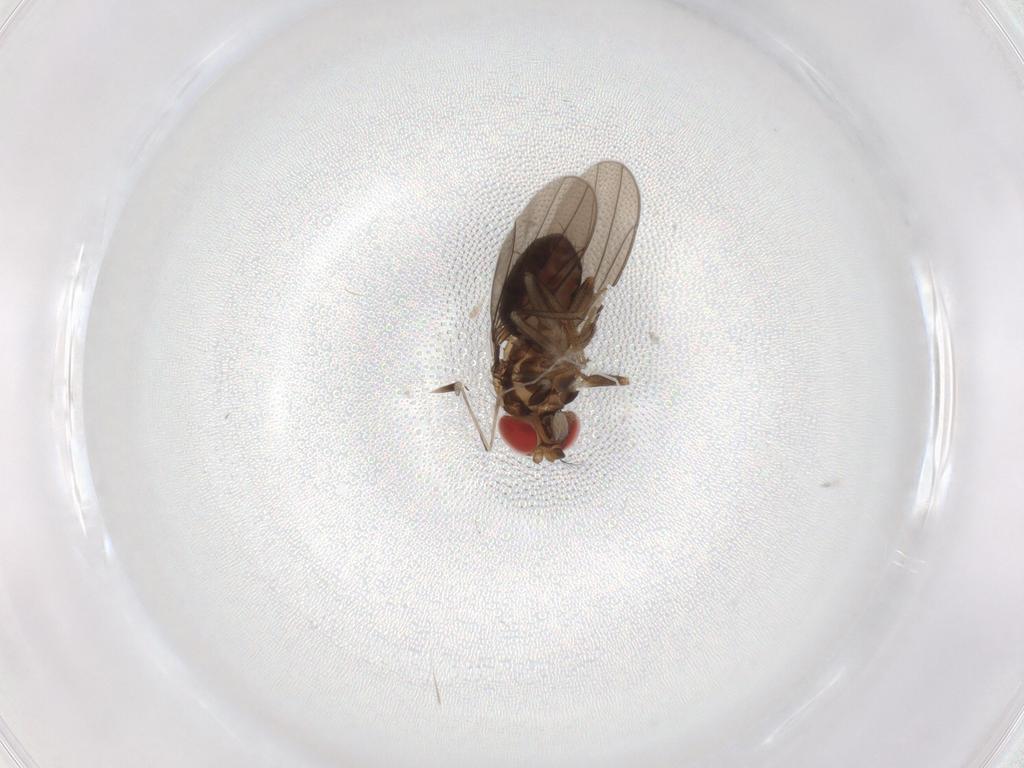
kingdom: Animalia
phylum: Arthropoda
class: Insecta
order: Diptera
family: Drosophilidae
